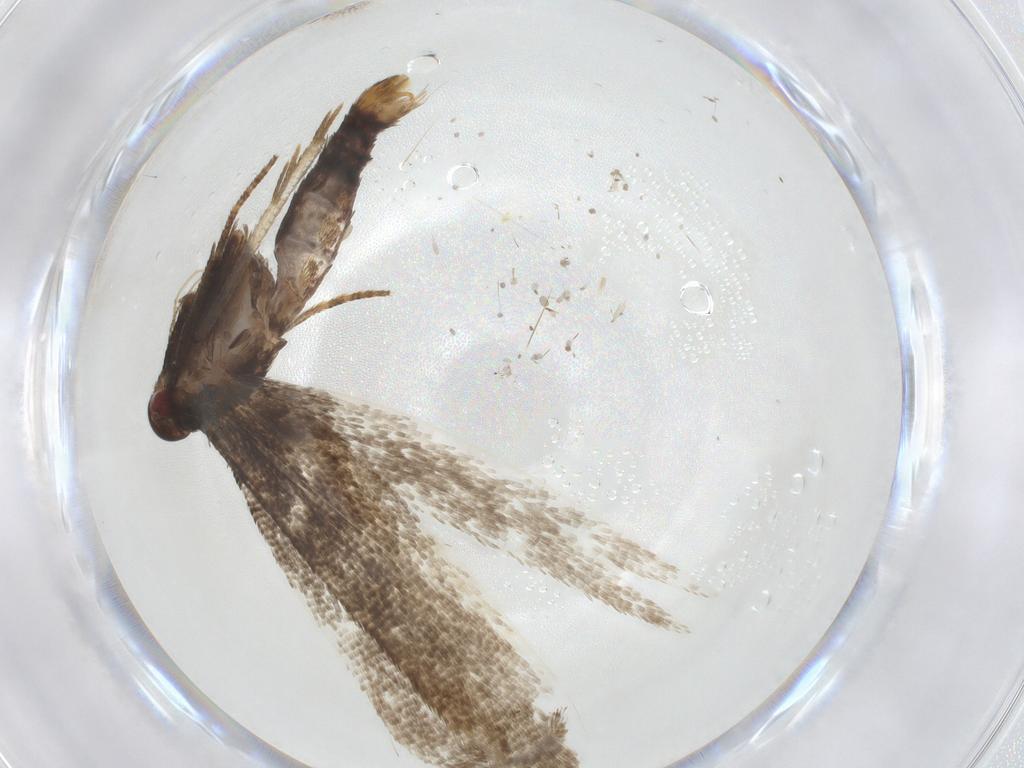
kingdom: Animalia
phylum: Arthropoda
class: Insecta
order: Lepidoptera
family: Momphidae
